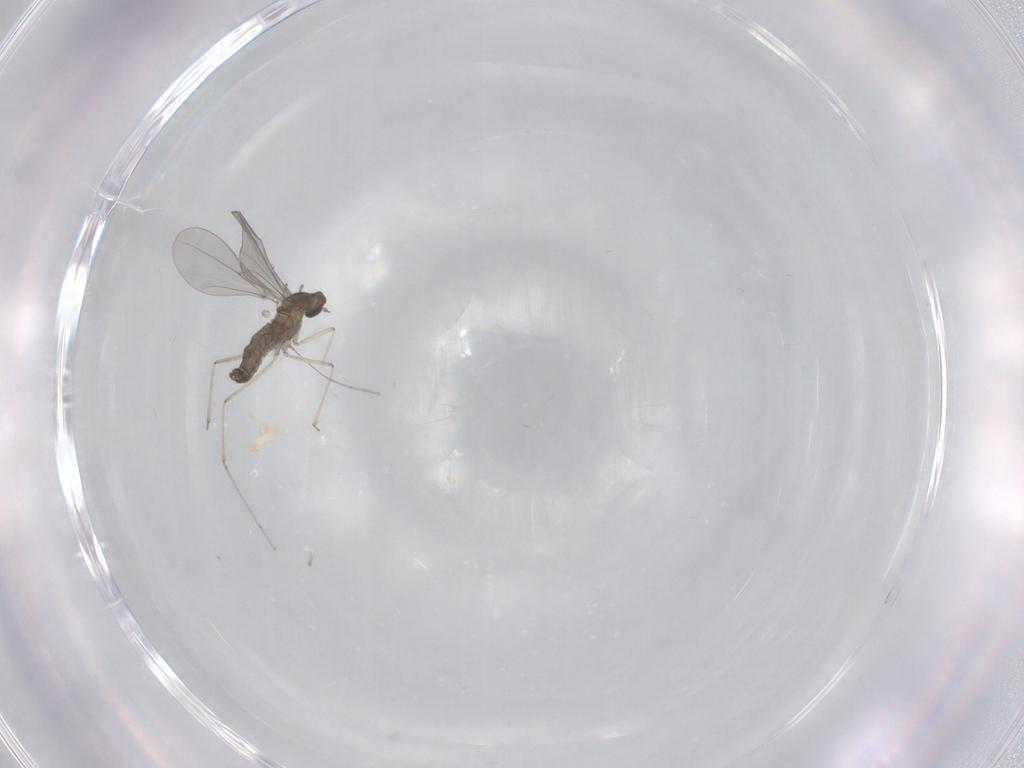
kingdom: Animalia
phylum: Arthropoda
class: Insecta
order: Diptera
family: Cecidomyiidae
